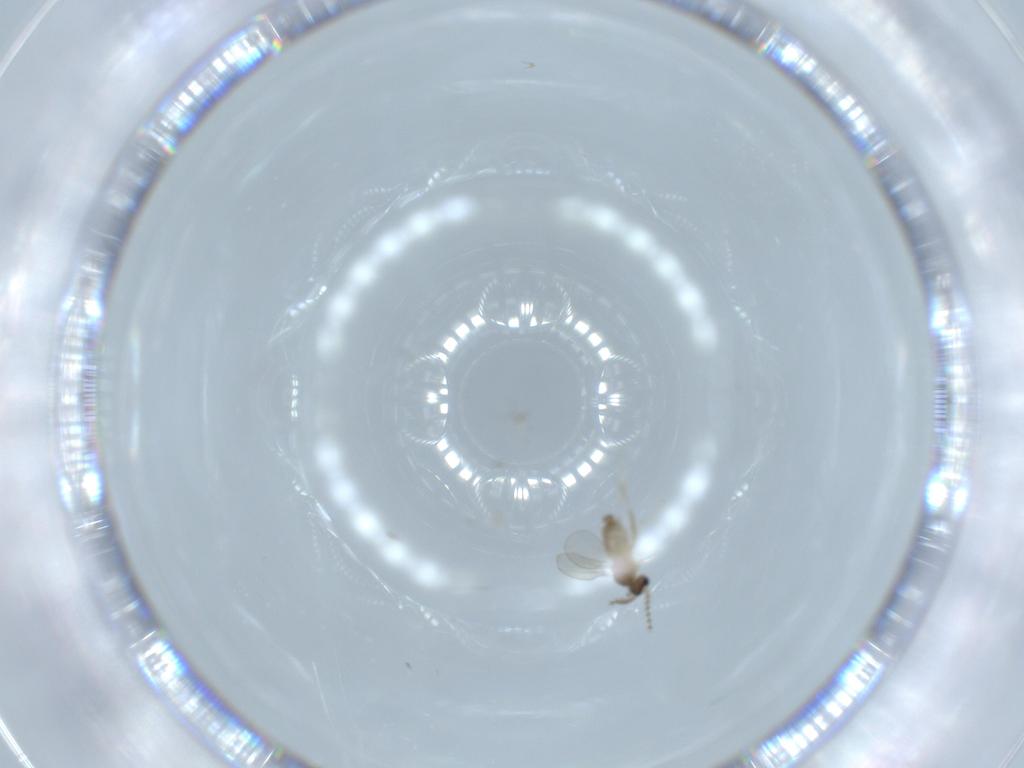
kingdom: Animalia
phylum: Arthropoda
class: Insecta
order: Diptera
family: Cecidomyiidae
